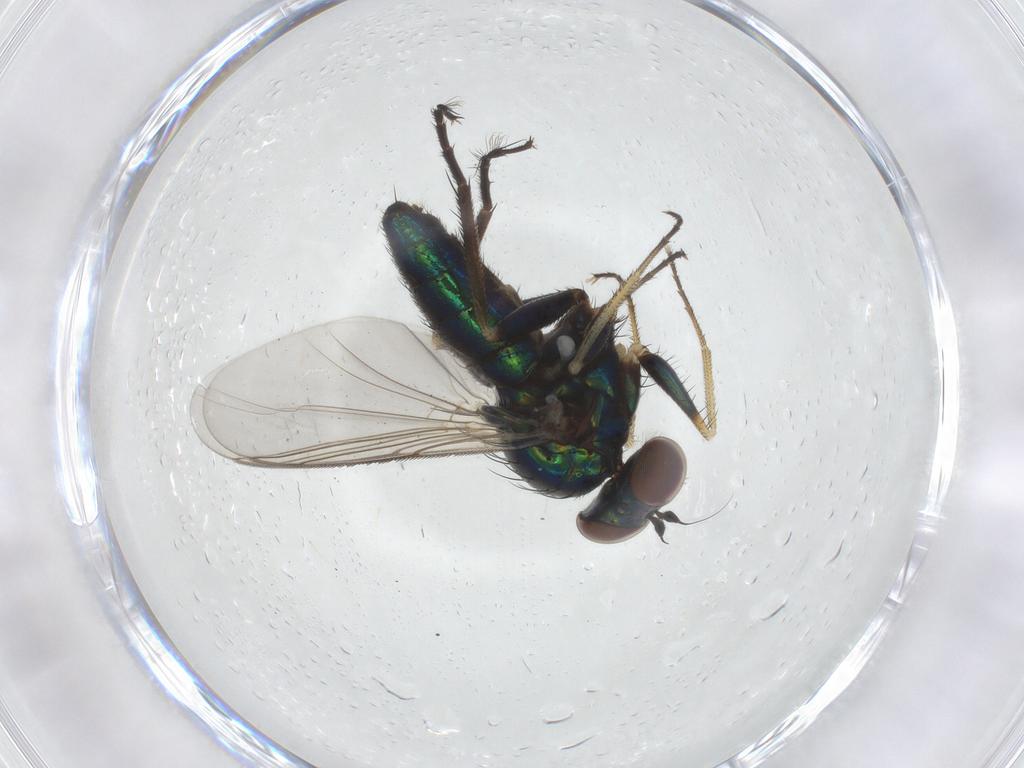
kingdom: Animalia
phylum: Arthropoda
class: Insecta
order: Diptera
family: Dolichopodidae
